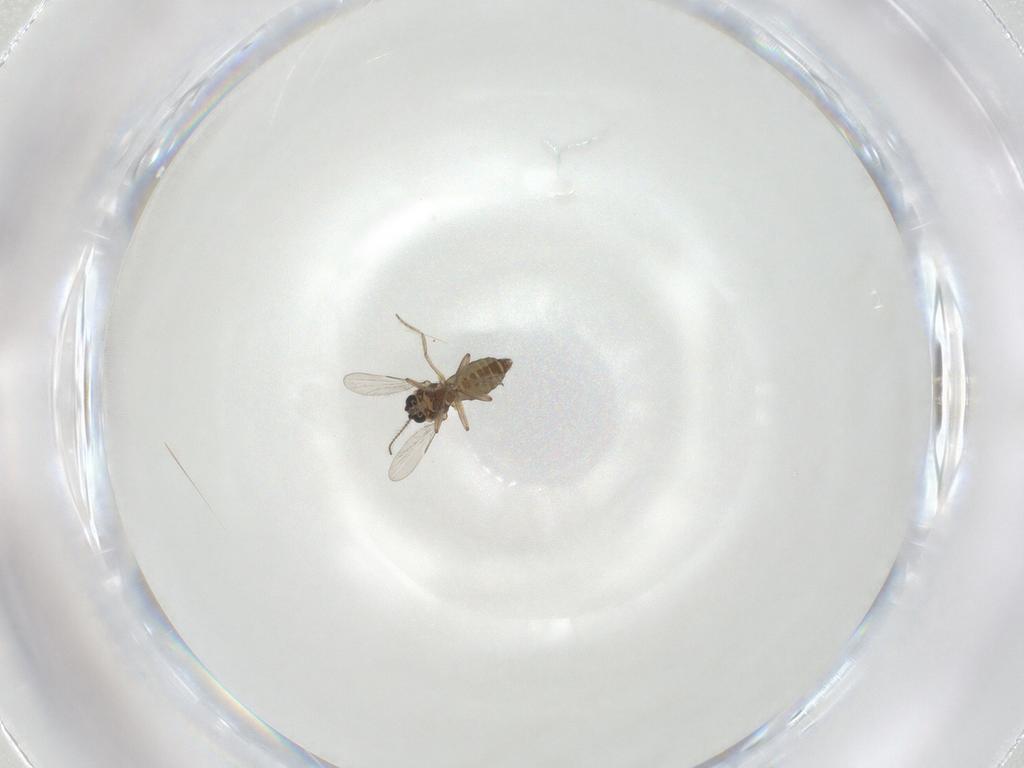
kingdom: Animalia
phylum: Arthropoda
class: Insecta
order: Diptera
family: Ceratopogonidae
